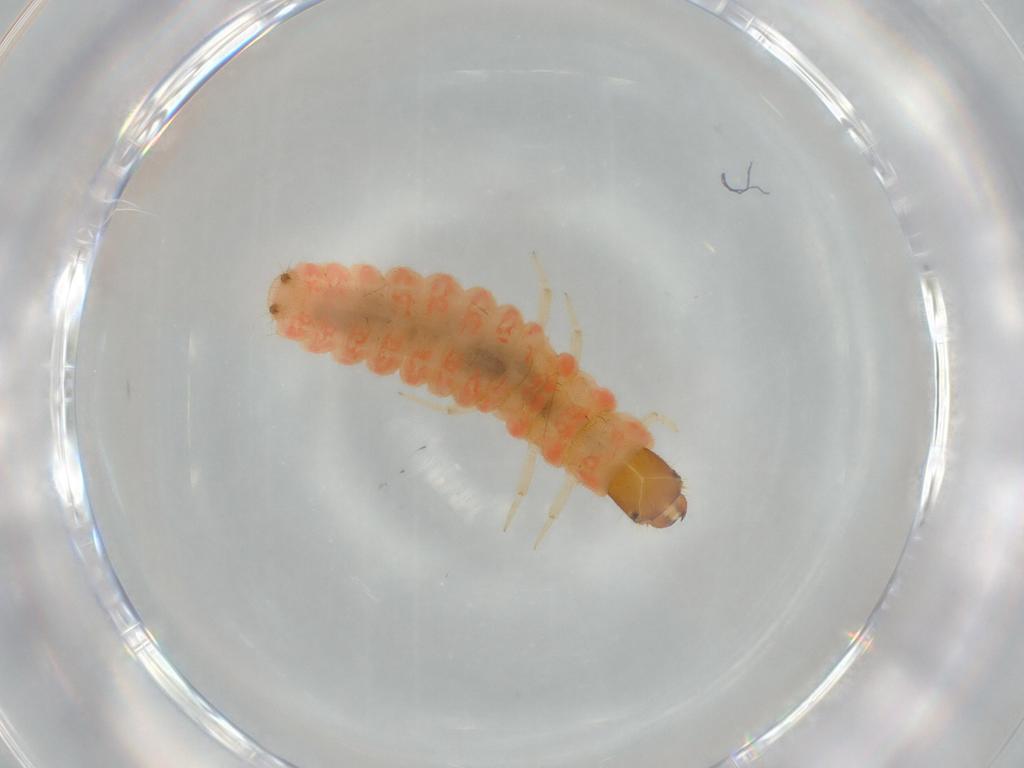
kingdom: Animalia
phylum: Arthropoda
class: Insecta
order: Coleoptera
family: Melyridae
